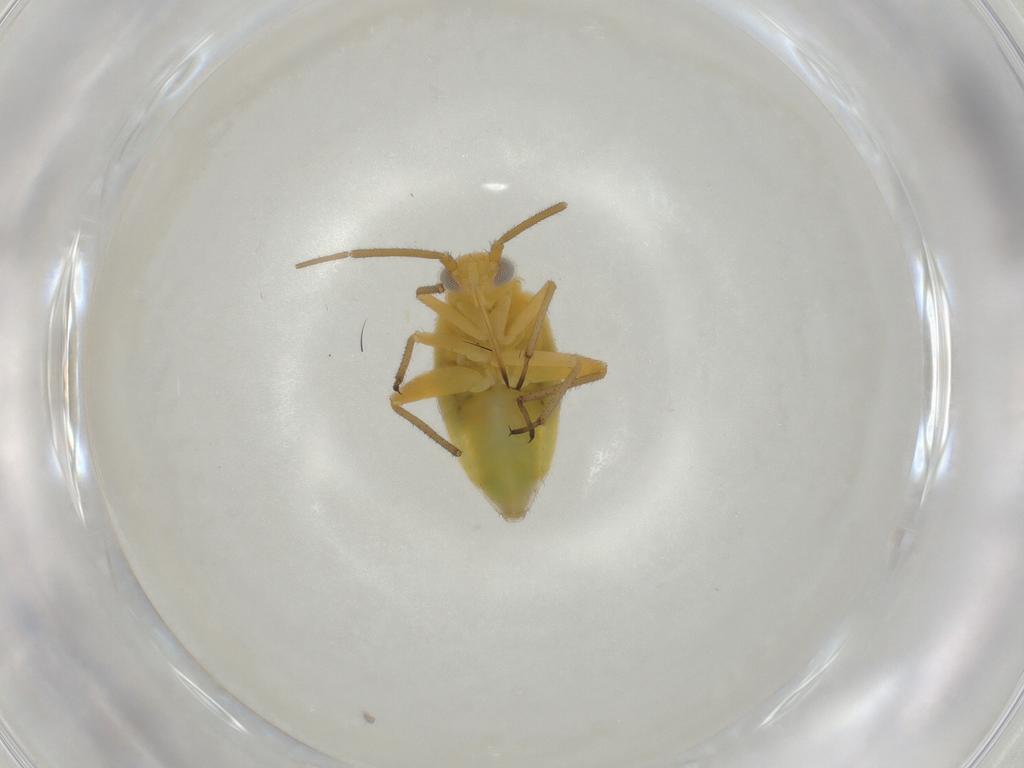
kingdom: Animalia
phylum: Arthropoda
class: Insecta
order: Hemiptera
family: Miridae
